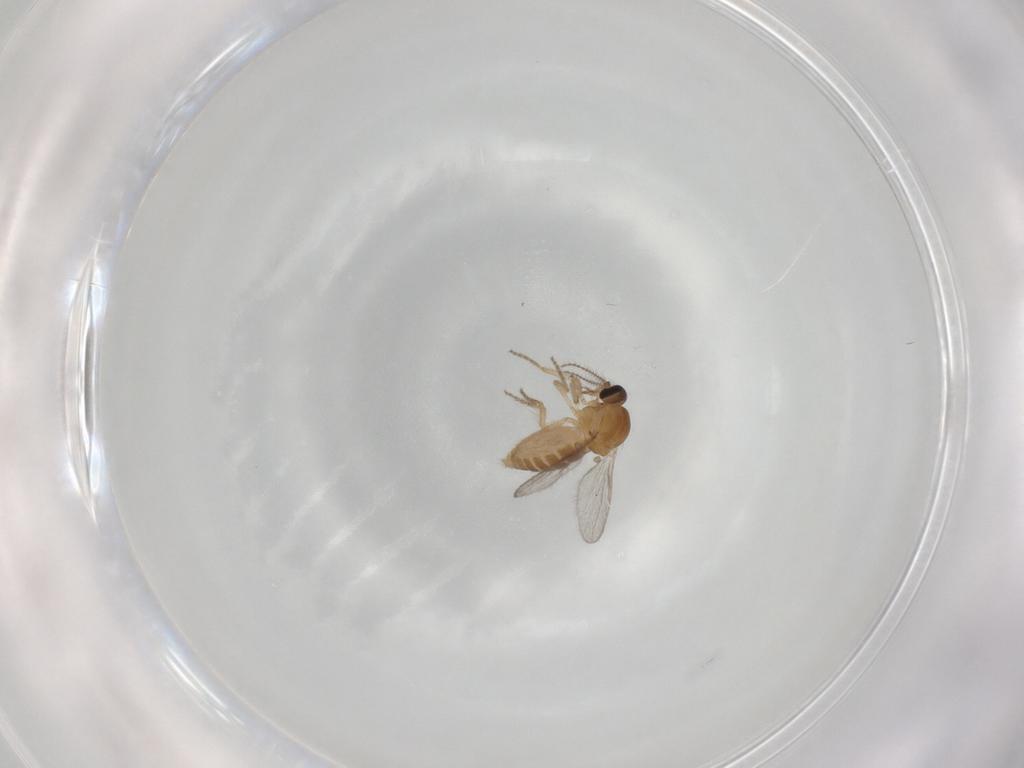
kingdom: Animalia
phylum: Arthropoda
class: Insecta
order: Diptera
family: Ceratopogonidae
